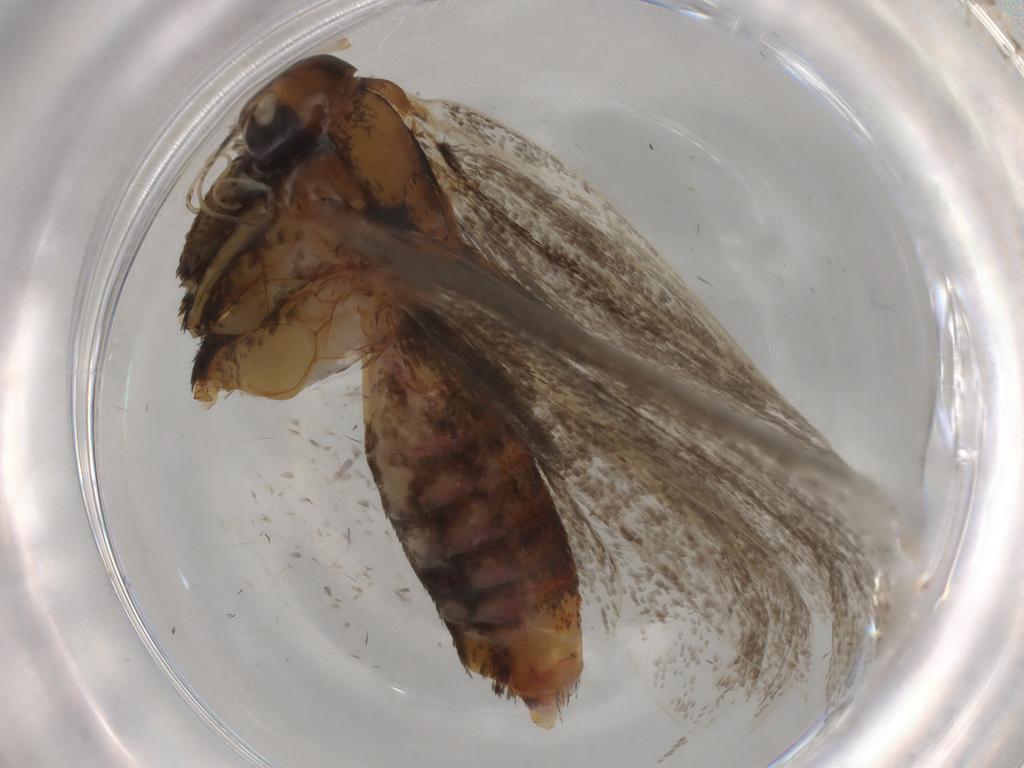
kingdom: Animalia
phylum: Arthropoda
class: Insecta
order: Lepidoptera
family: Lecithoceridae
